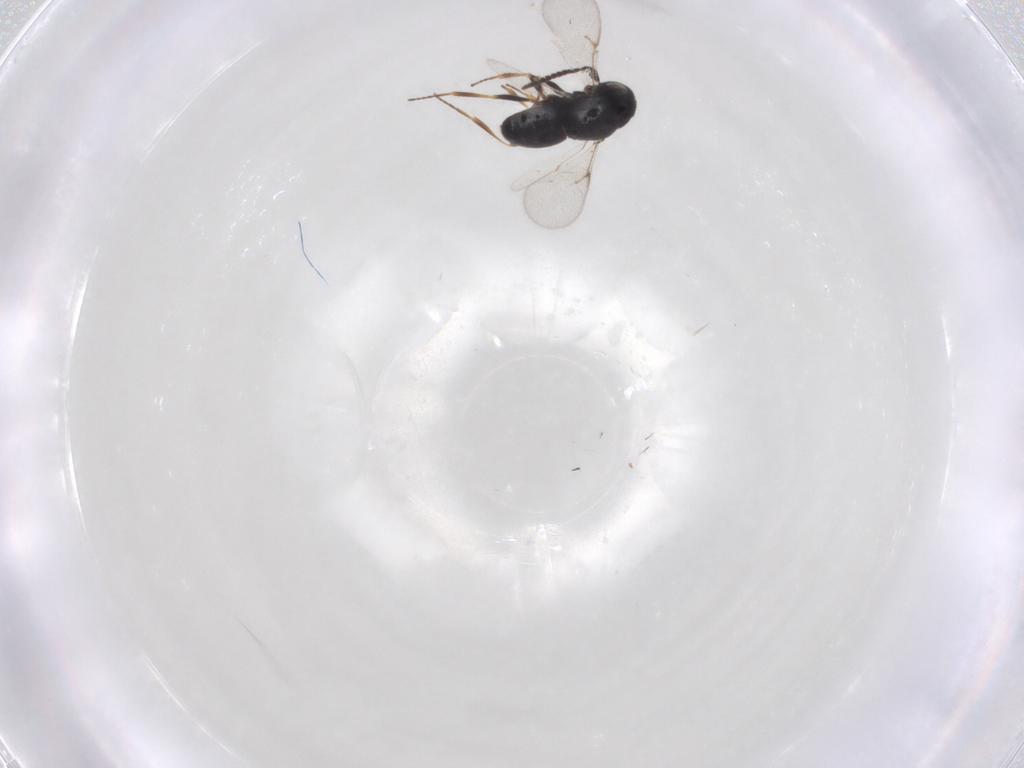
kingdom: Animalia
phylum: Arthropoda
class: Insecta
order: Hymenoptera
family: Scelionidae
